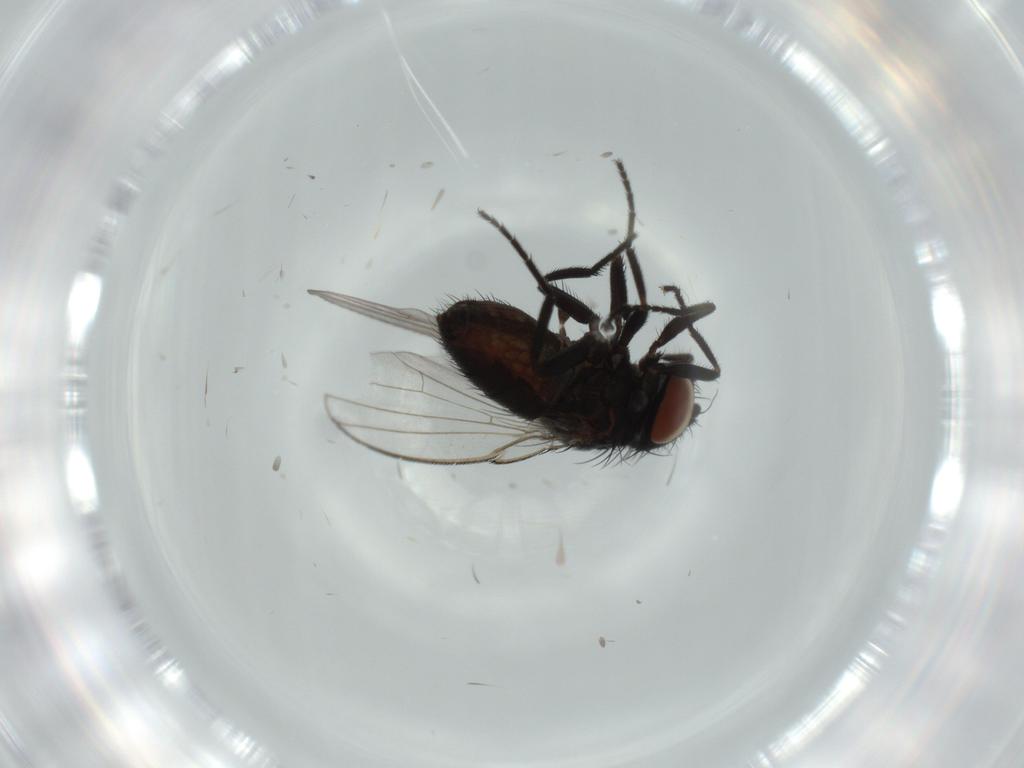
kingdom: Animalia
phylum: Arthropoda
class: Insecta
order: Diptera
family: Milichiidae
